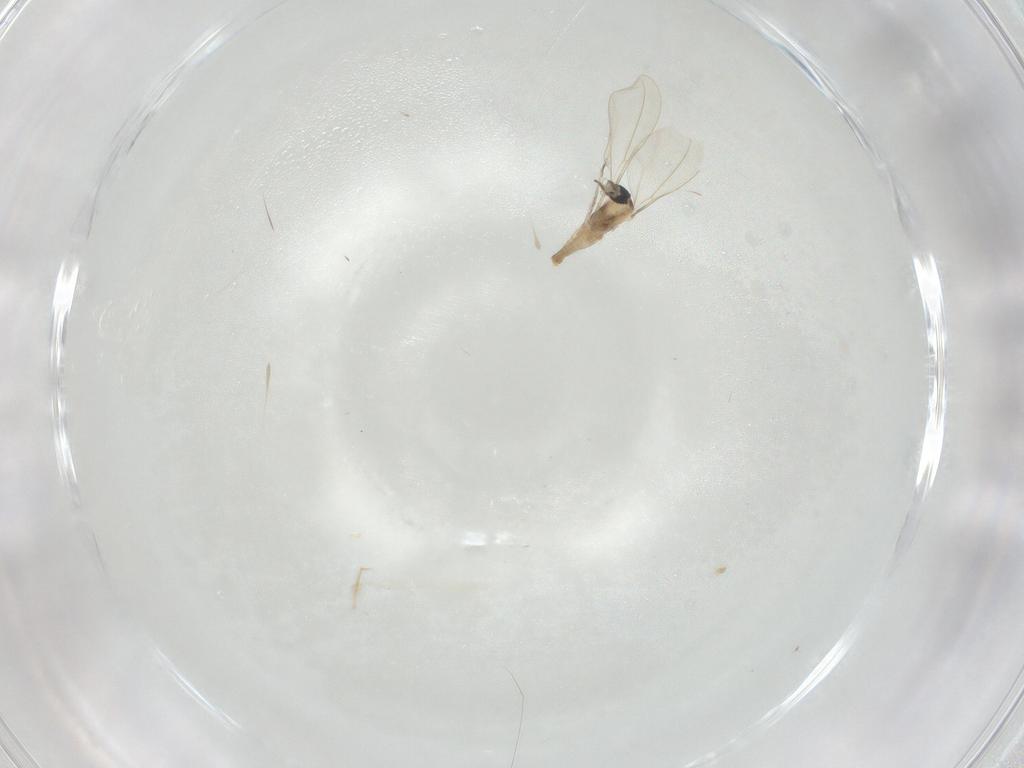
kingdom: Animalia
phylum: Arthropoda
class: Insecta
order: Diptera
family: Cecidomyiidae
